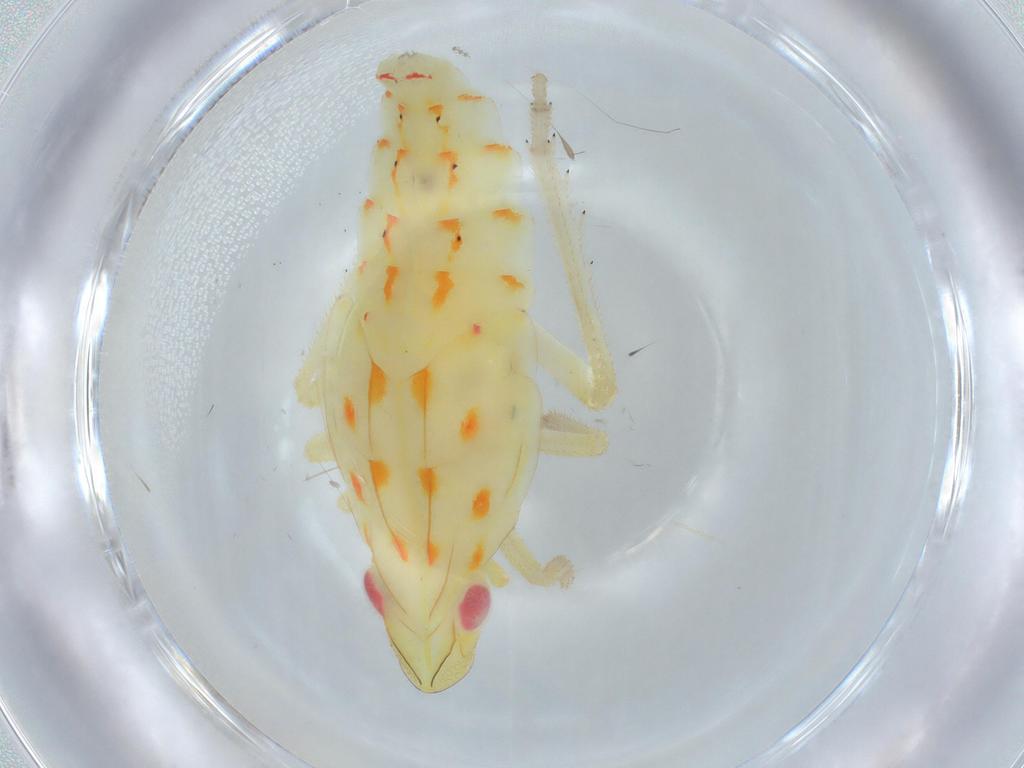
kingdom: Animalia
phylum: Arthropoda
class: Insecta
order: Hemiptera
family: Tropiduchidae
